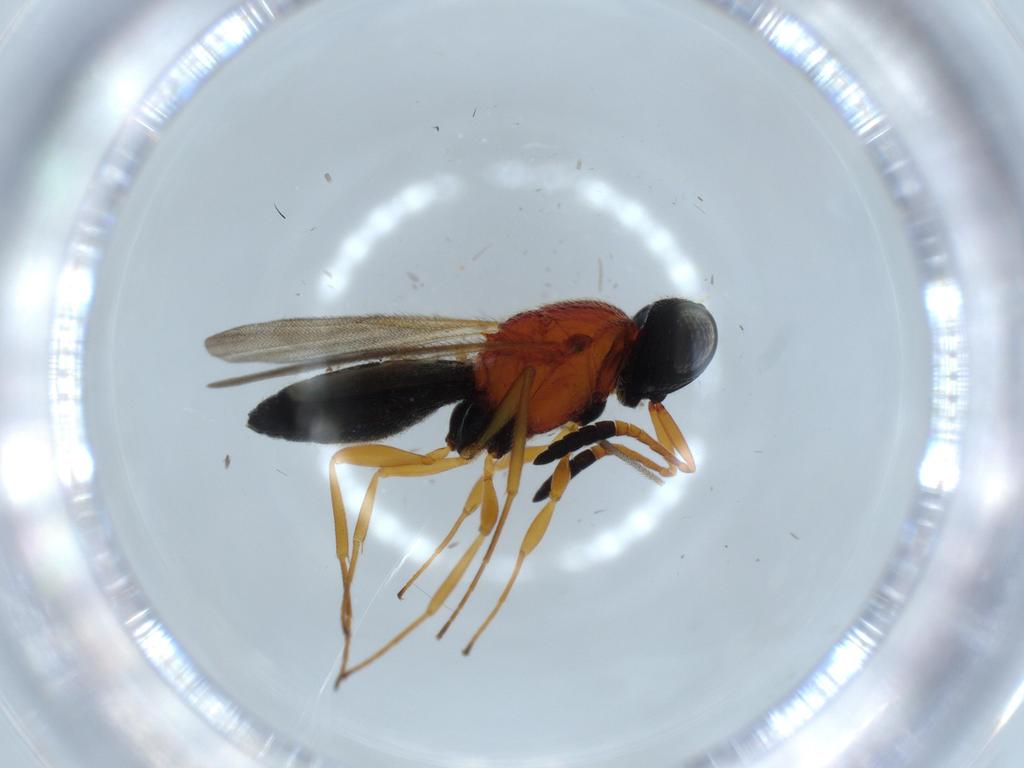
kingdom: Animalia
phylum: Arthropoda
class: Insecta
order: Hymenoptera
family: Scelionidae
